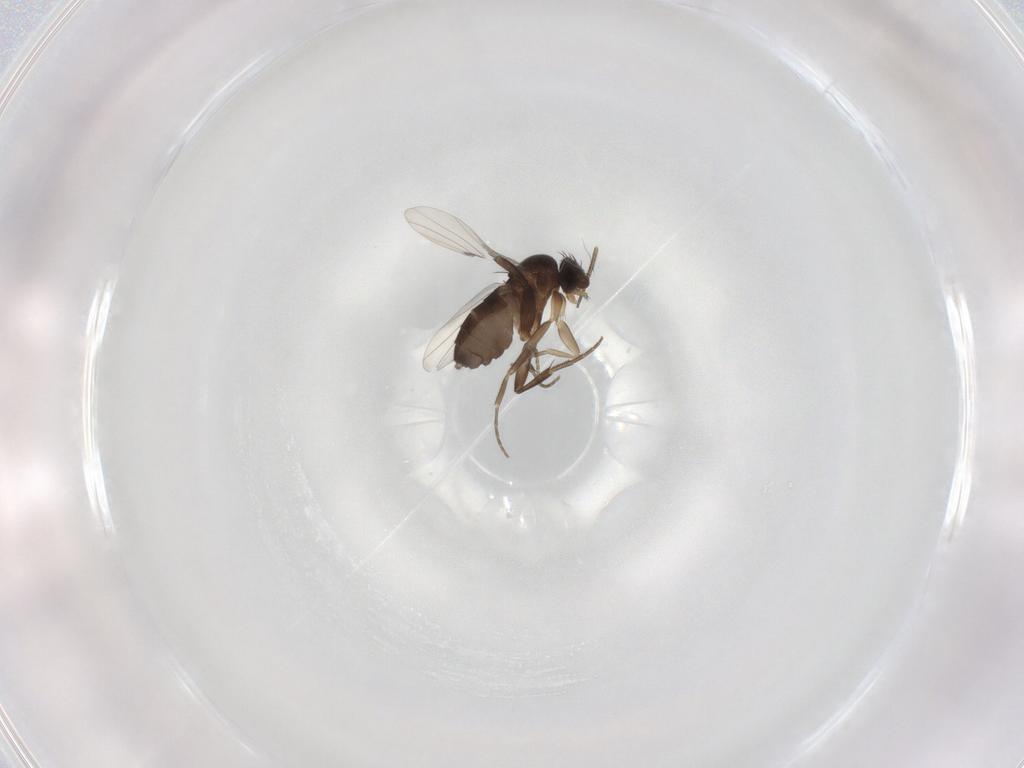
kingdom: Animalia
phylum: Arthropoda
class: Insecta
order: Diptera
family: Phoridae
